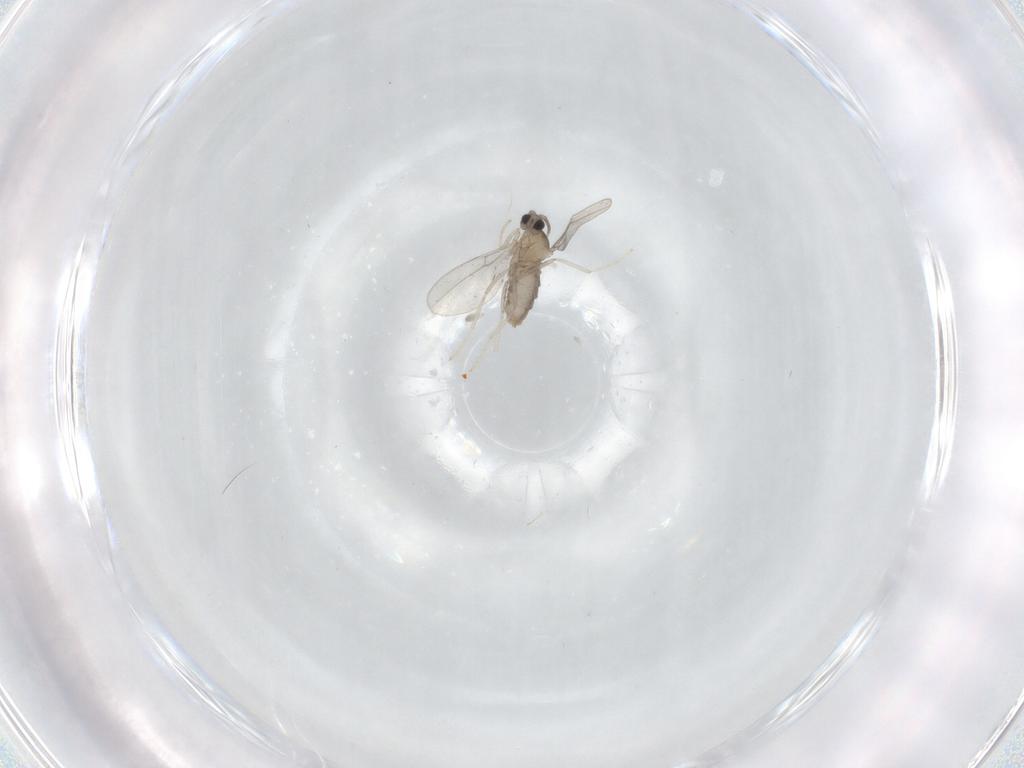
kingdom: Animalia
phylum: Arthropoda
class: Insecta
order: Diptera
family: Cecidomyiidae
